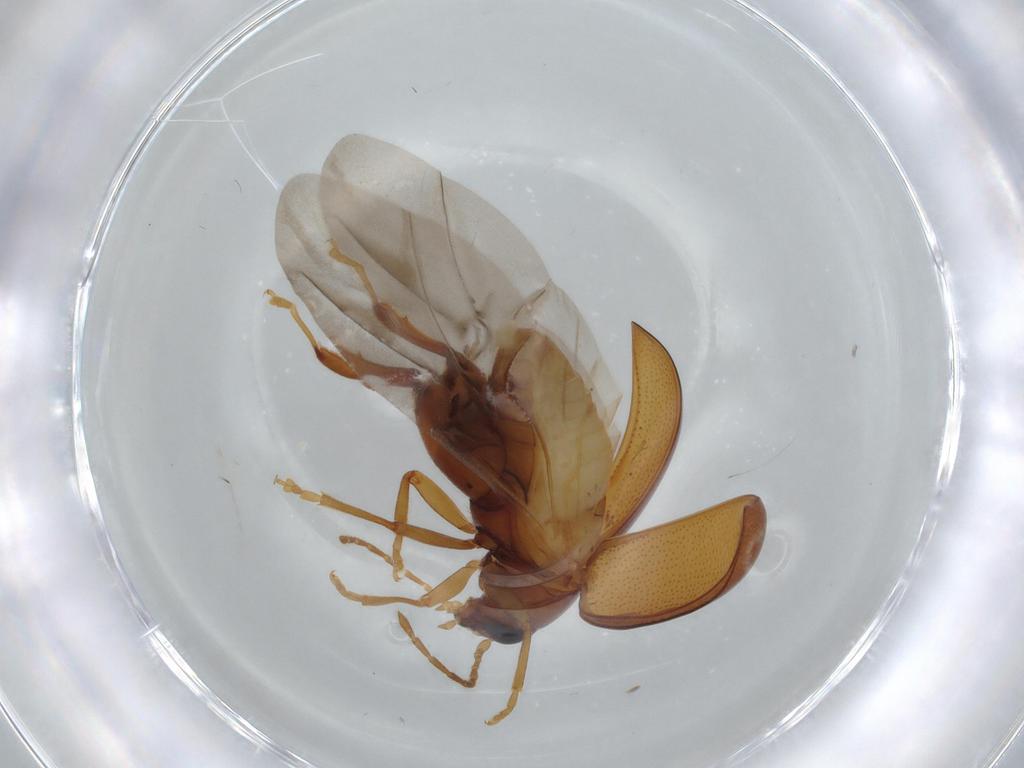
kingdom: Animalia
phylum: Arthropoda
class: Insecta
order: Coleoptera
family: Chrysomelidae
